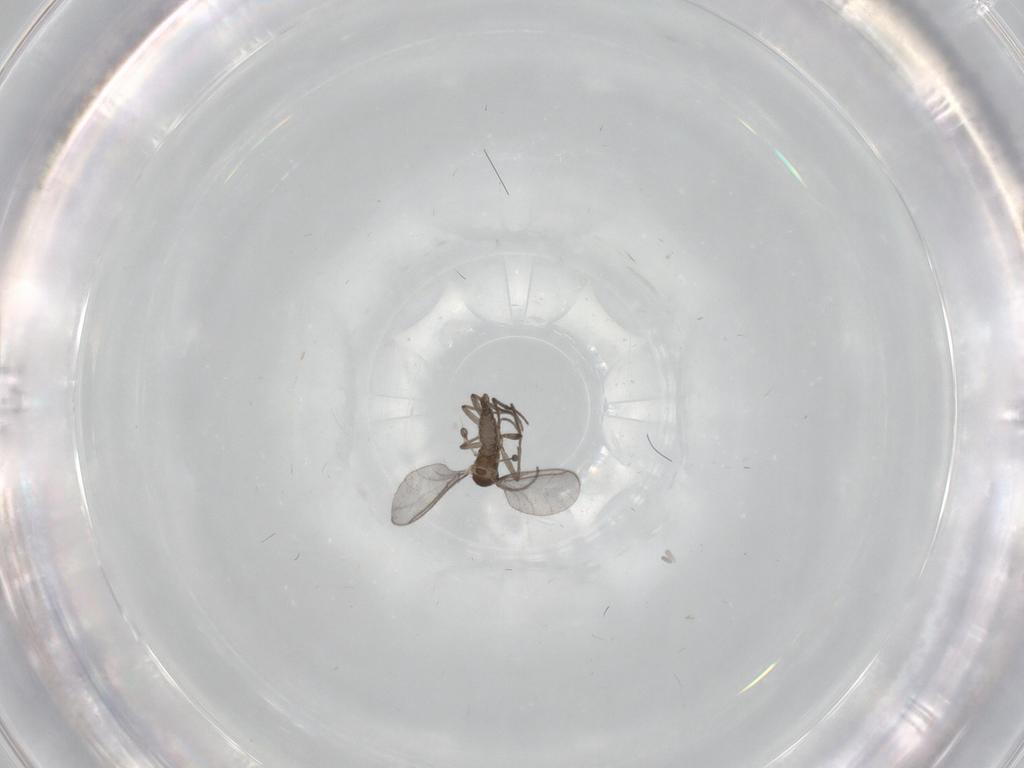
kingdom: Animalia
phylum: Arthropoda
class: Insecta
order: Diptera
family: Sciaridae
